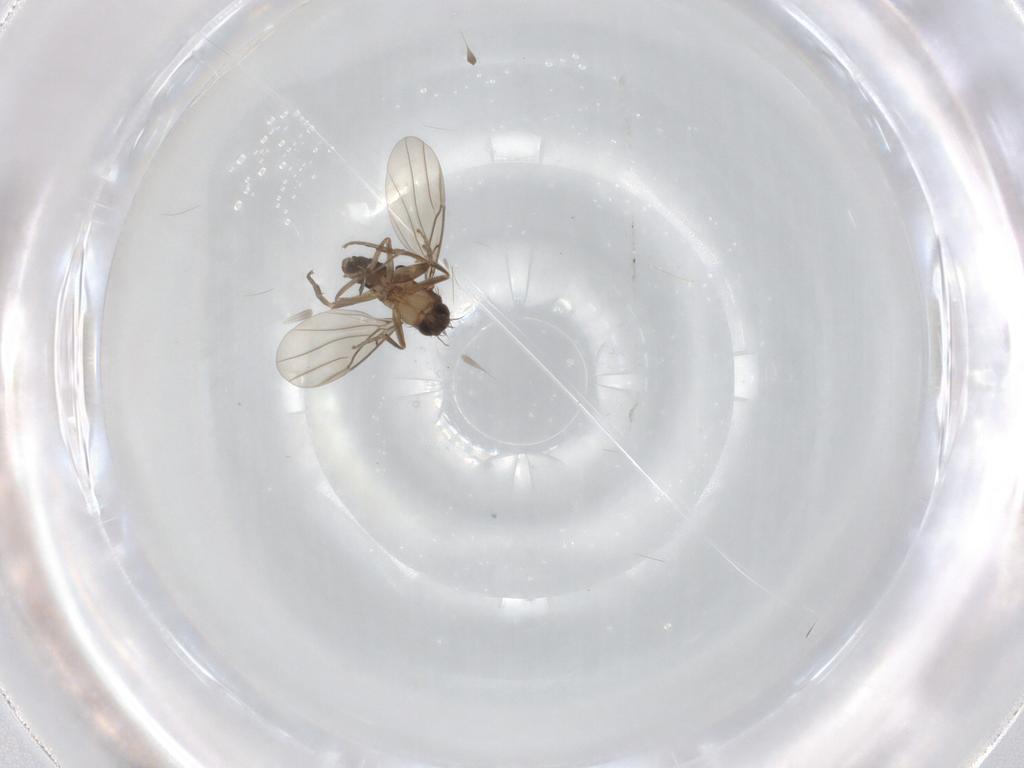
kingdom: Animalia
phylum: Arthropoda
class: Insecta
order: Diptera
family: Phoridae
